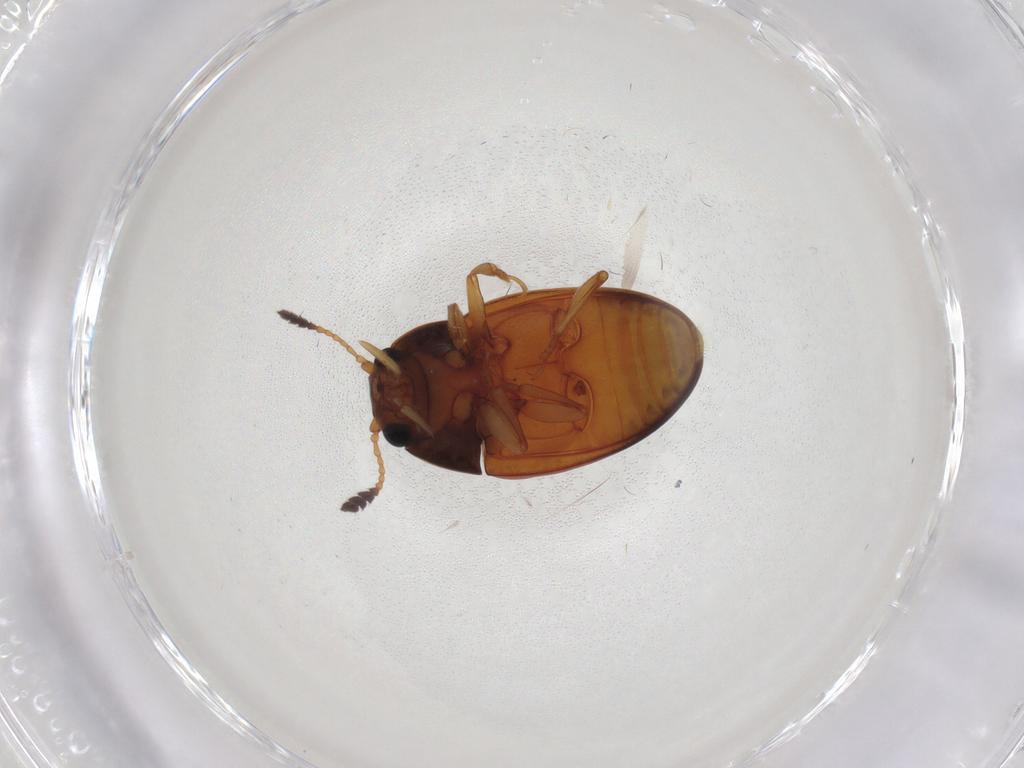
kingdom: Animalia
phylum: Arthropoda
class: Insecta
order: Coleoptera
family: Erotylidae
